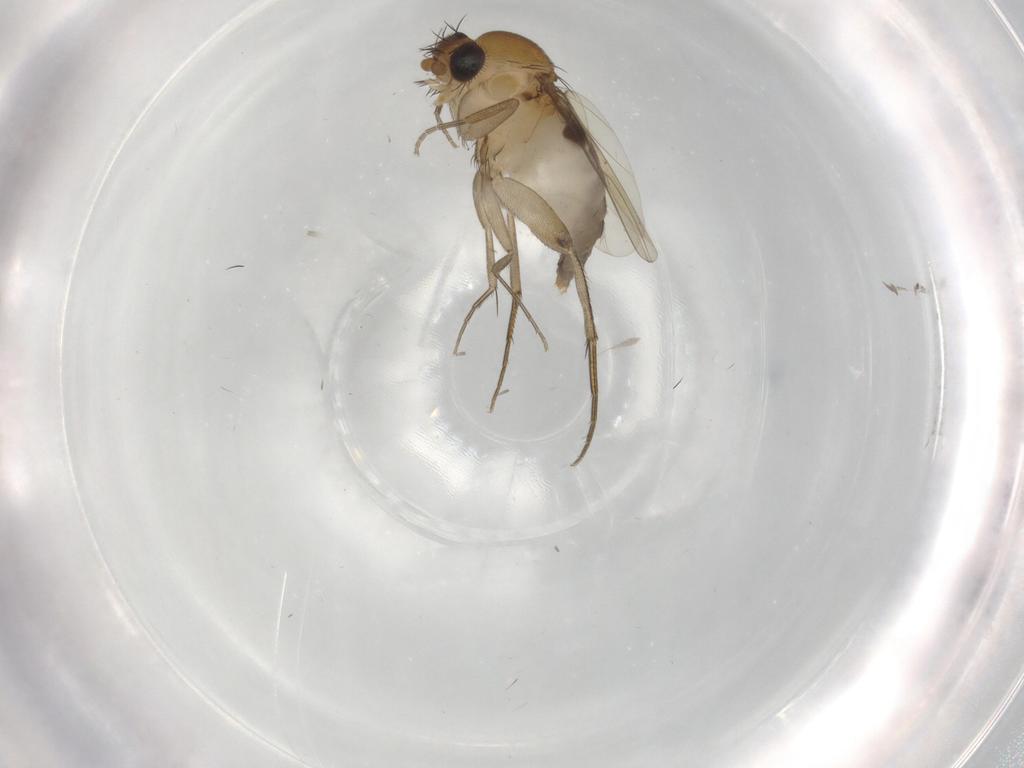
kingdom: Animalia
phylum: Arthropoda
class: Insecta
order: Diptera
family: Phoridae
